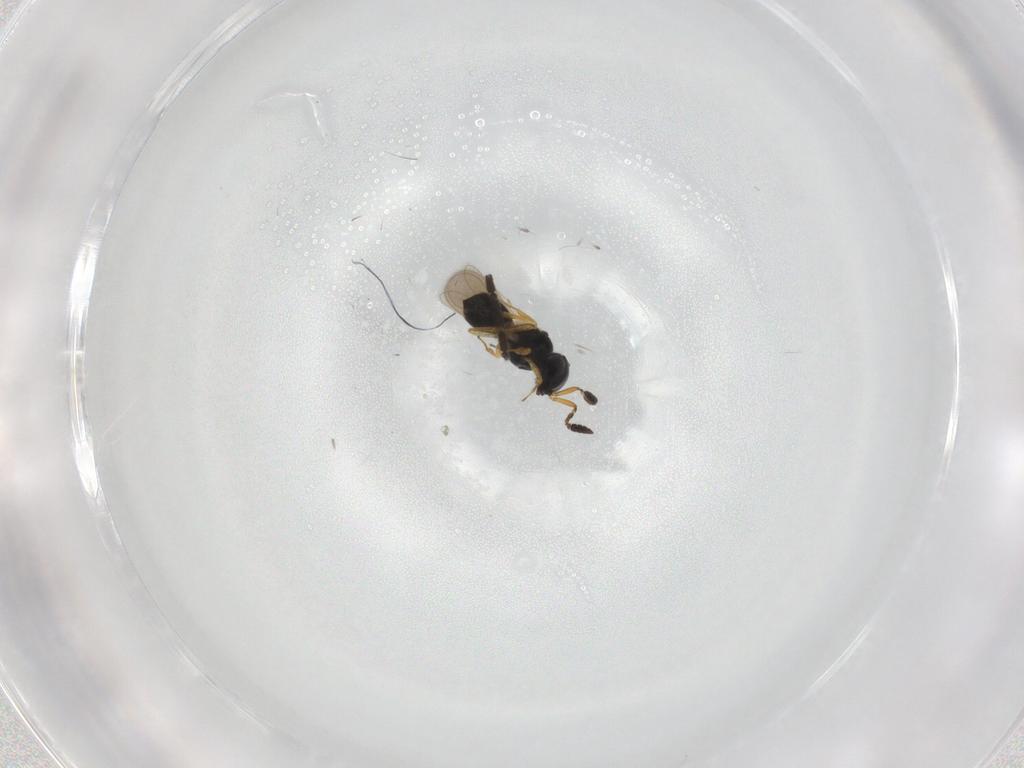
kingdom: Animalia
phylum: Arthropoda
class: Insecta
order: Hymenoptera
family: Scelionidae
